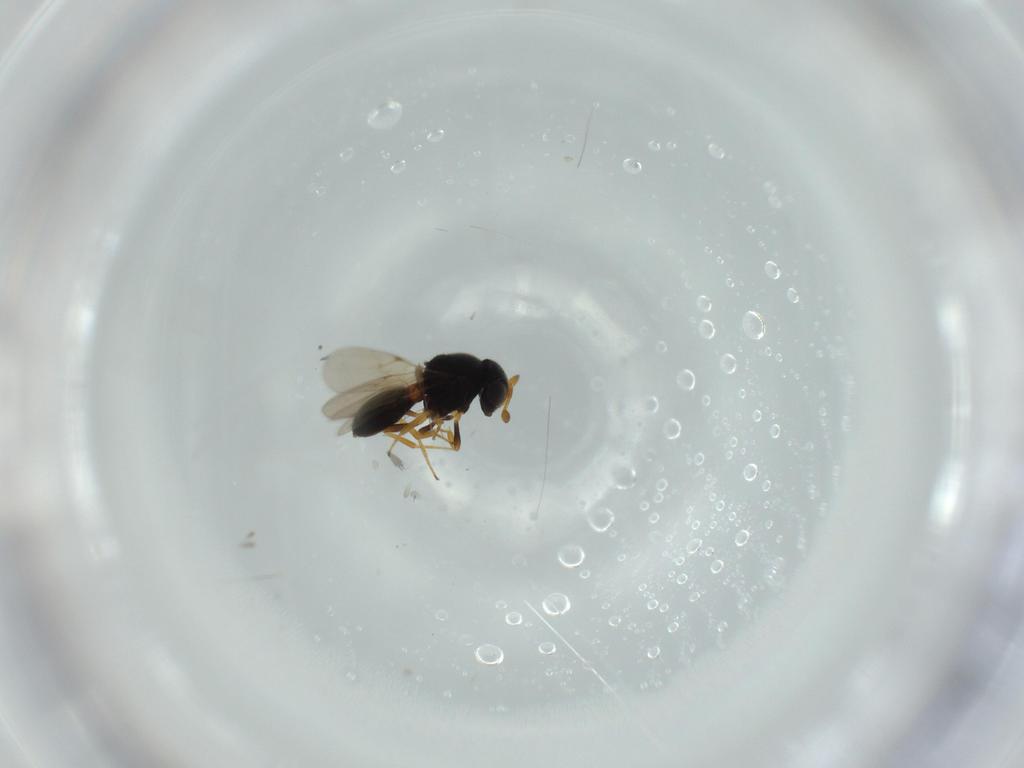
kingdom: Animalia
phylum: Arthropoda
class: Insecta
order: Hymenoptera
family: Scelionidae
